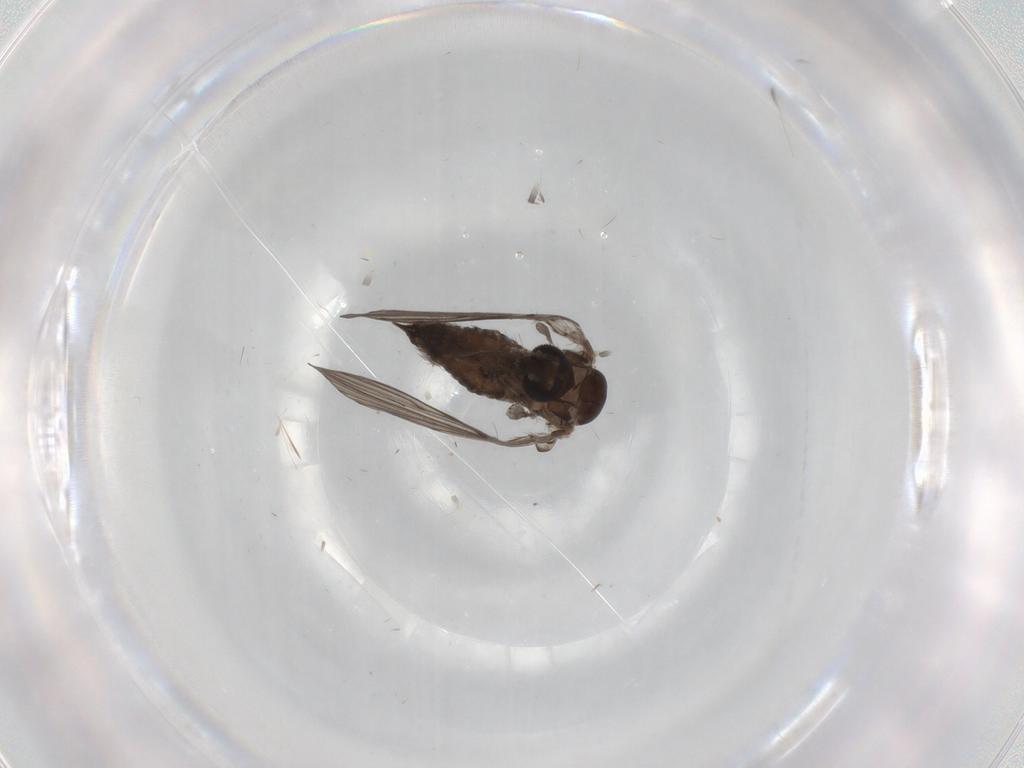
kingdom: Animalia
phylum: Arthropoda
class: Insecta
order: Diptera
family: Psychodidae
